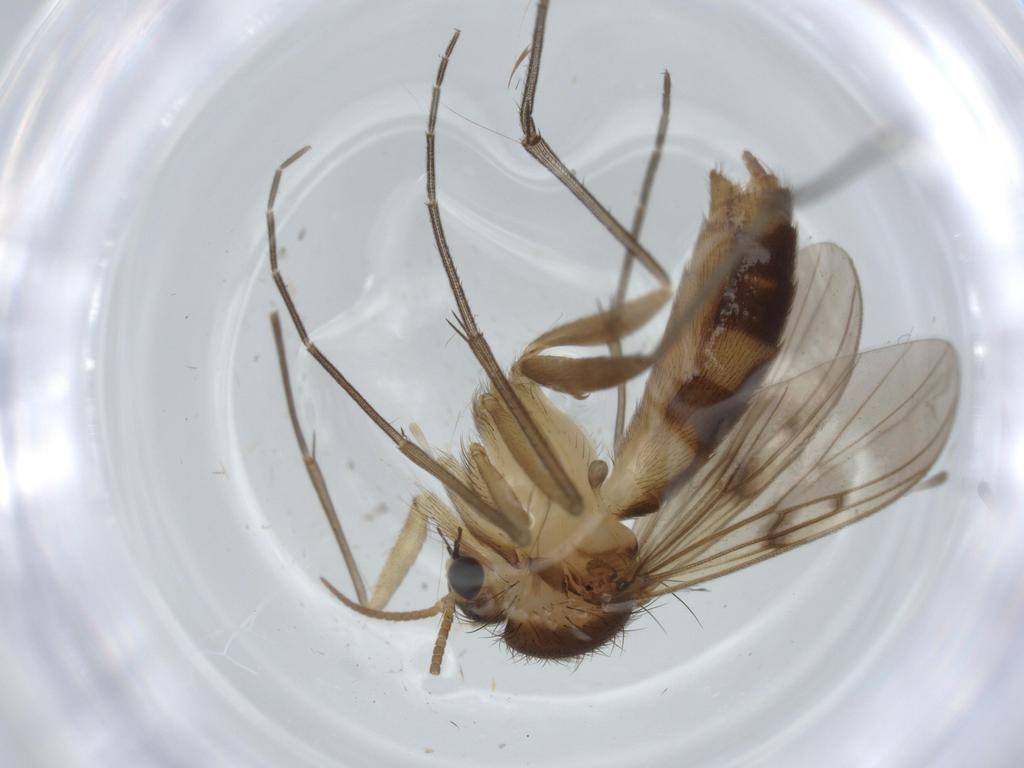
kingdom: Animalia
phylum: Arthropoda
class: Insecta
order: Diptera
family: Mycetophilidae
